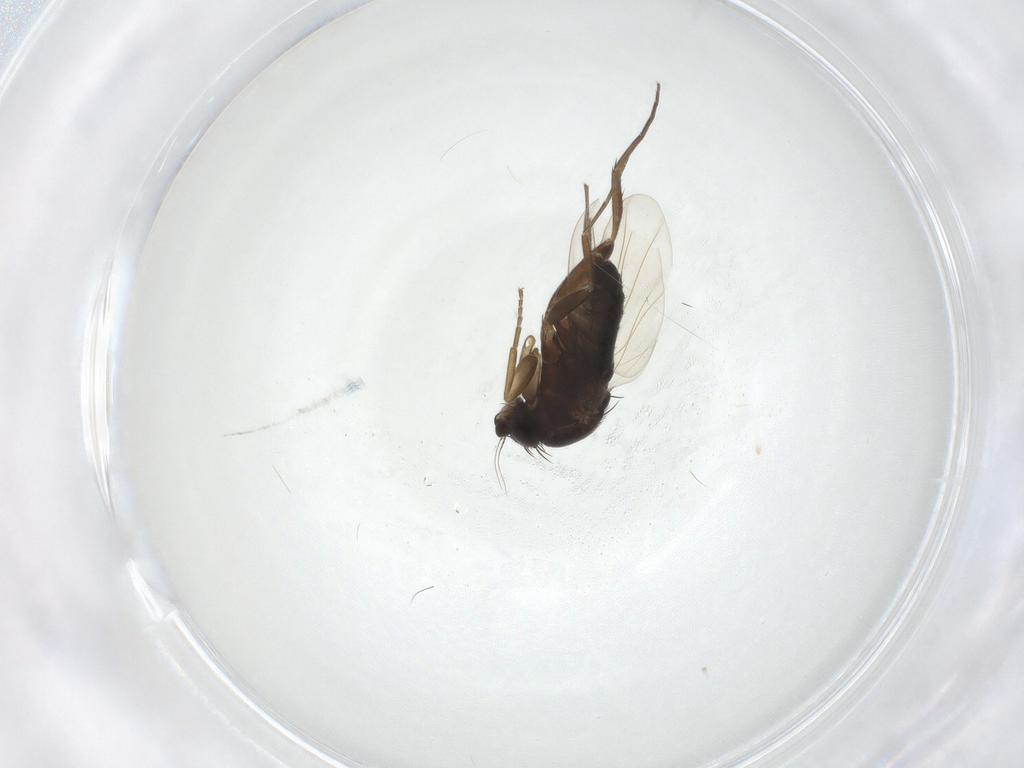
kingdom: Animalia
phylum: Arthropoda
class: Insecta
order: Diptera
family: Phoridae
